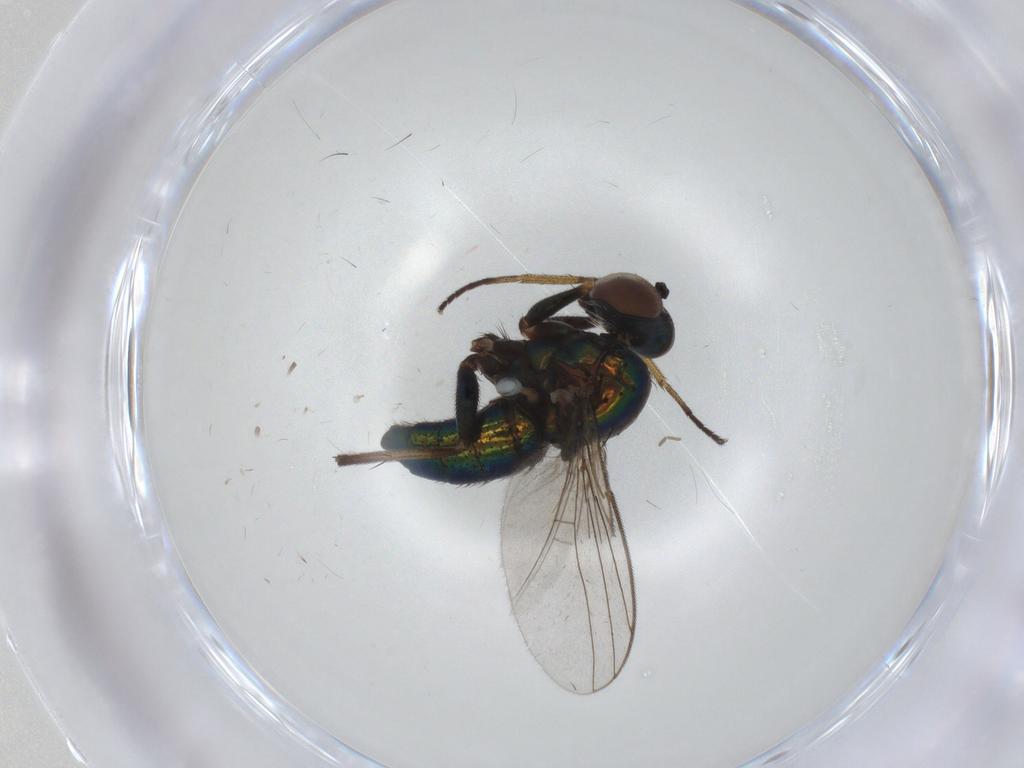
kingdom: Animalia
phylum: Arthropoda
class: Insecta
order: Diptera
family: Dolichopodidae
